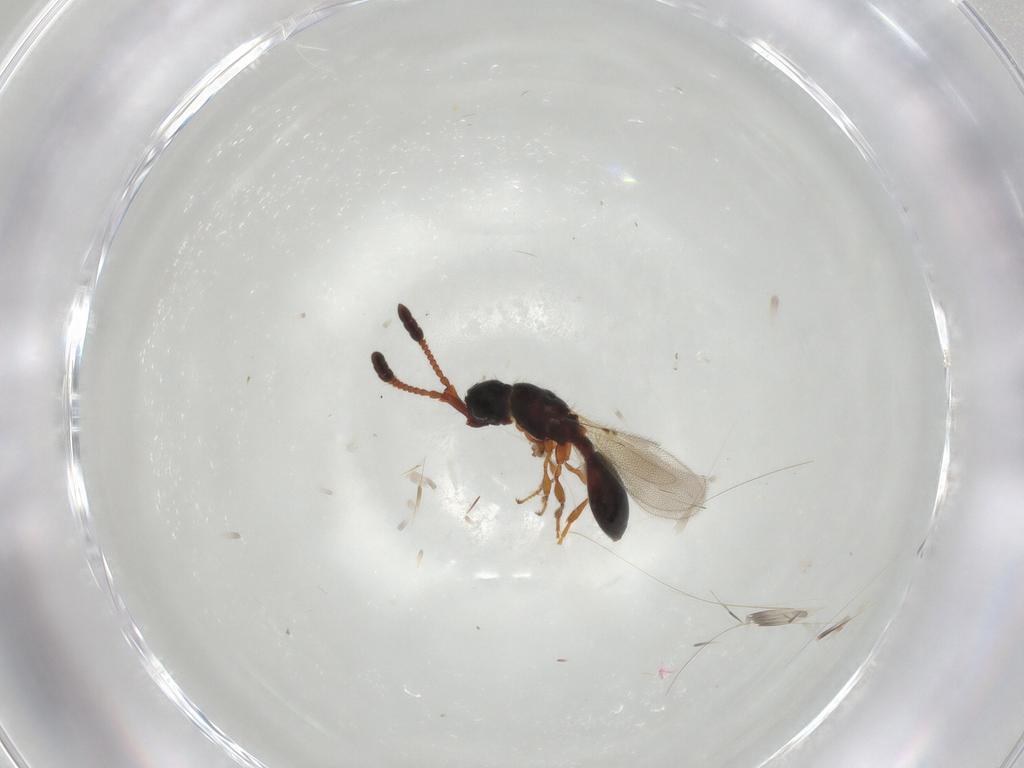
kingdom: Animalia
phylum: Arthropoda
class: Insecta
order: Hymenoptera
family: Diapriidae
